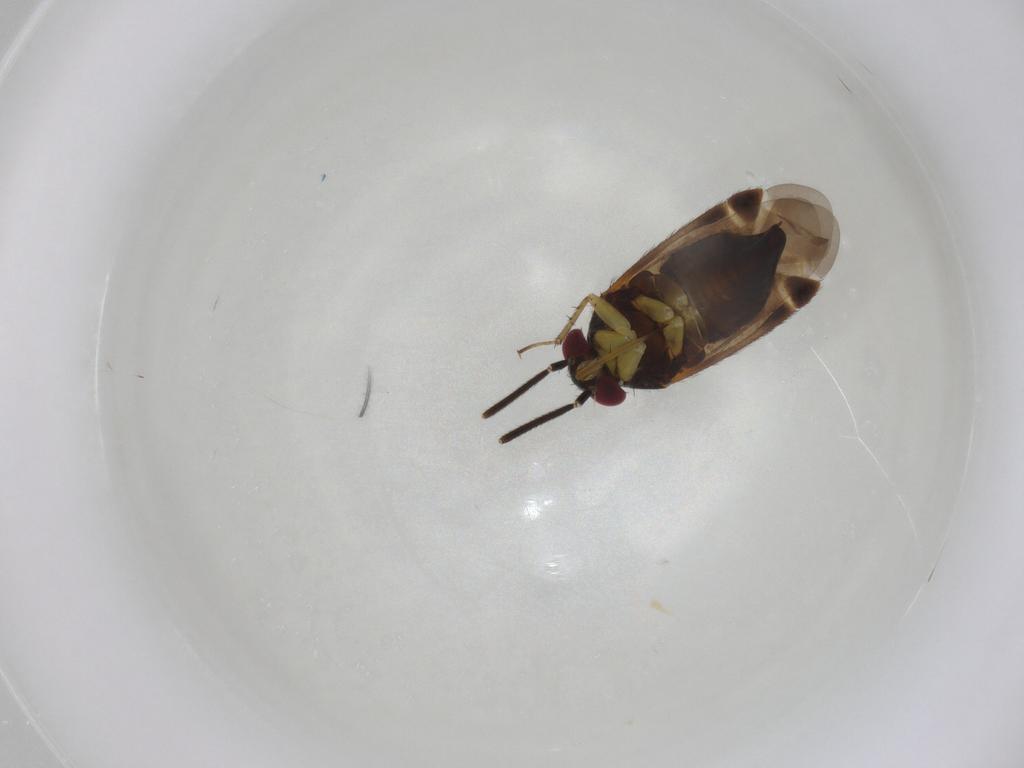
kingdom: Animalia
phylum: Arthropoda
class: Insecta
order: Hemiptera
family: Miridae
